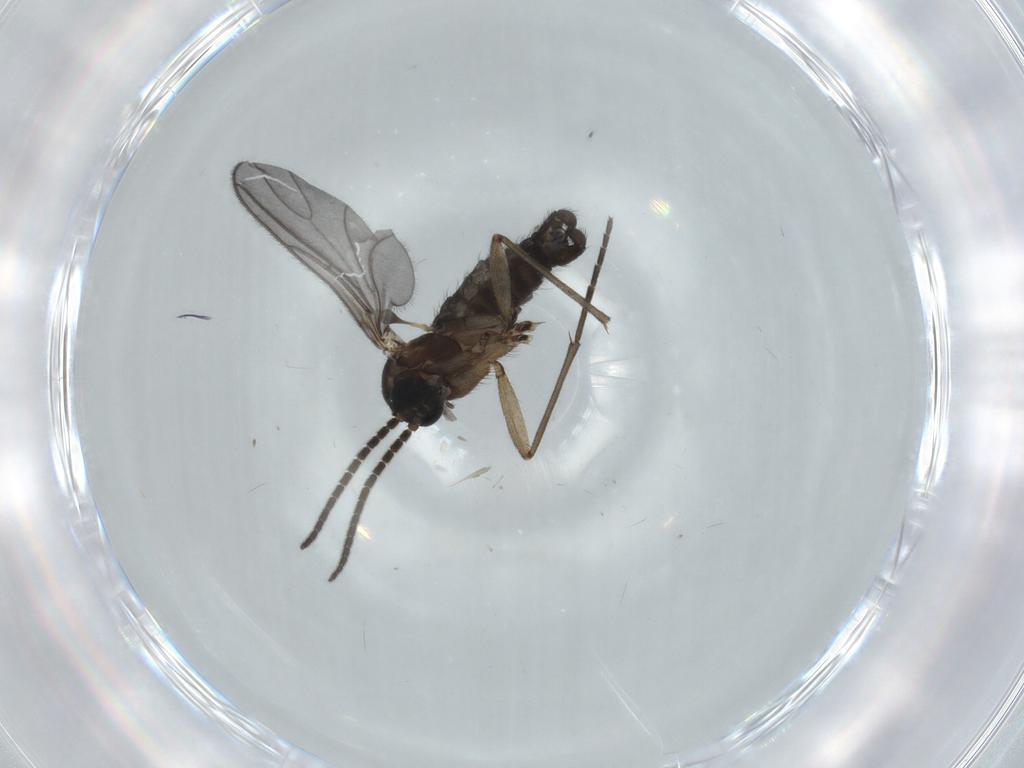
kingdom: Animalia
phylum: Arthropoda
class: Insecta
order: Diptera
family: Sciaridae
